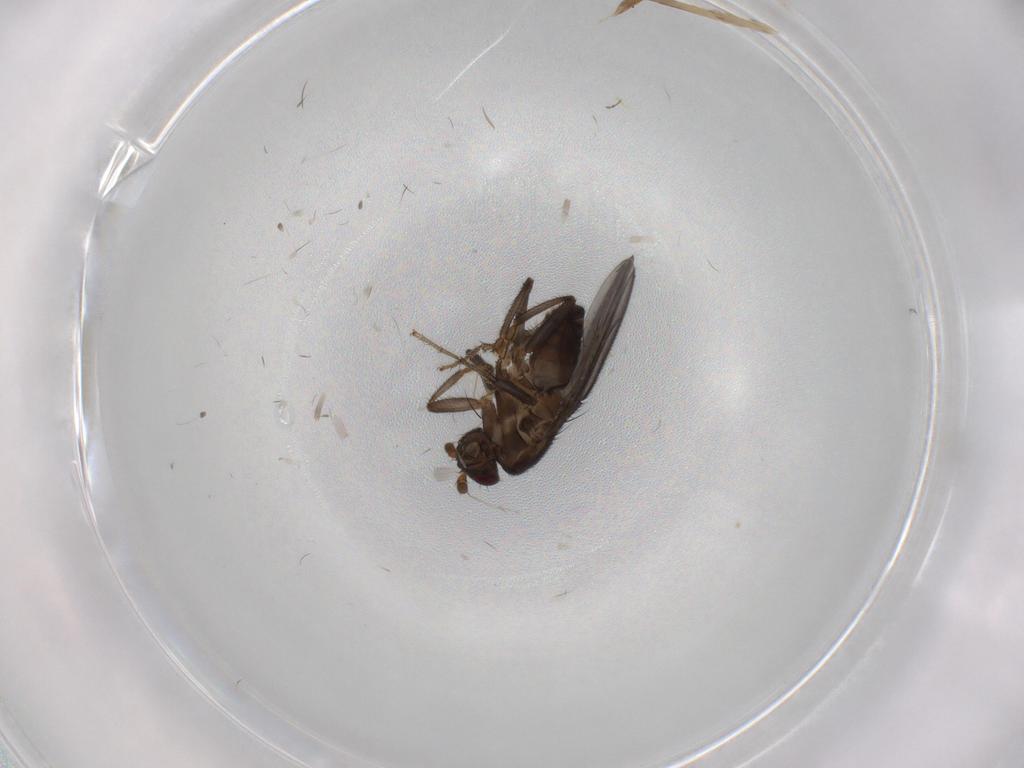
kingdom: Animalia
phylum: Arthropoda
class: Insecta
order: Diptera
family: Sphaeroceridae
